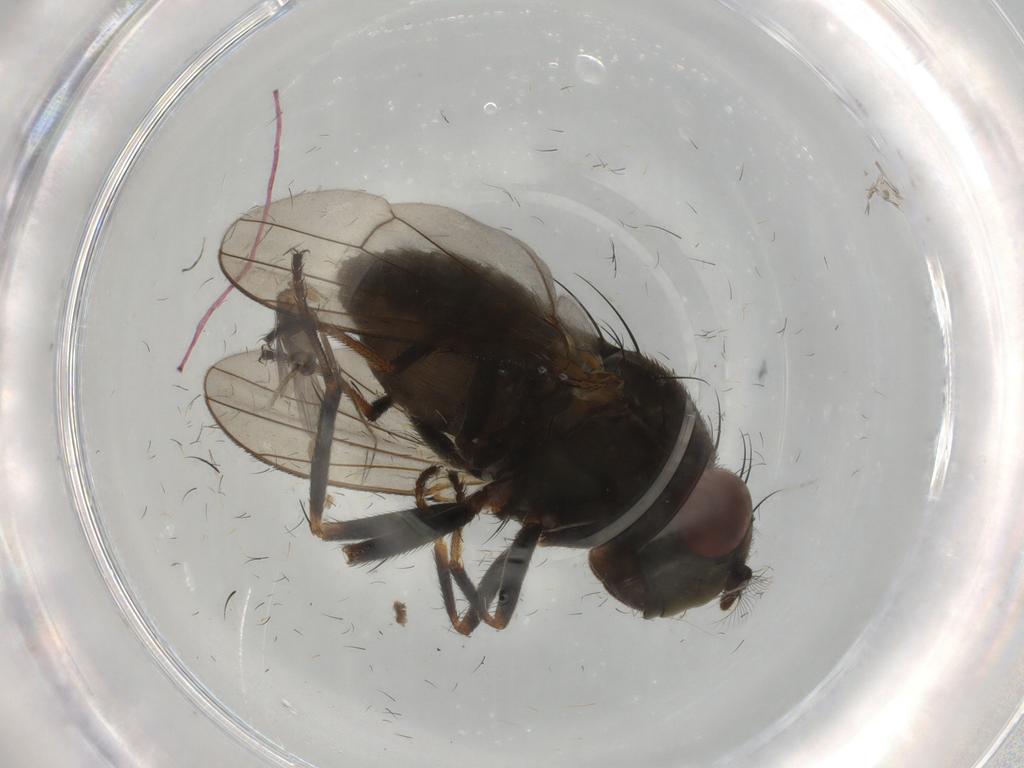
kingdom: Animalia
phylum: Arthropoda
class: Insecta
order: Diptera
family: Ephydridae
